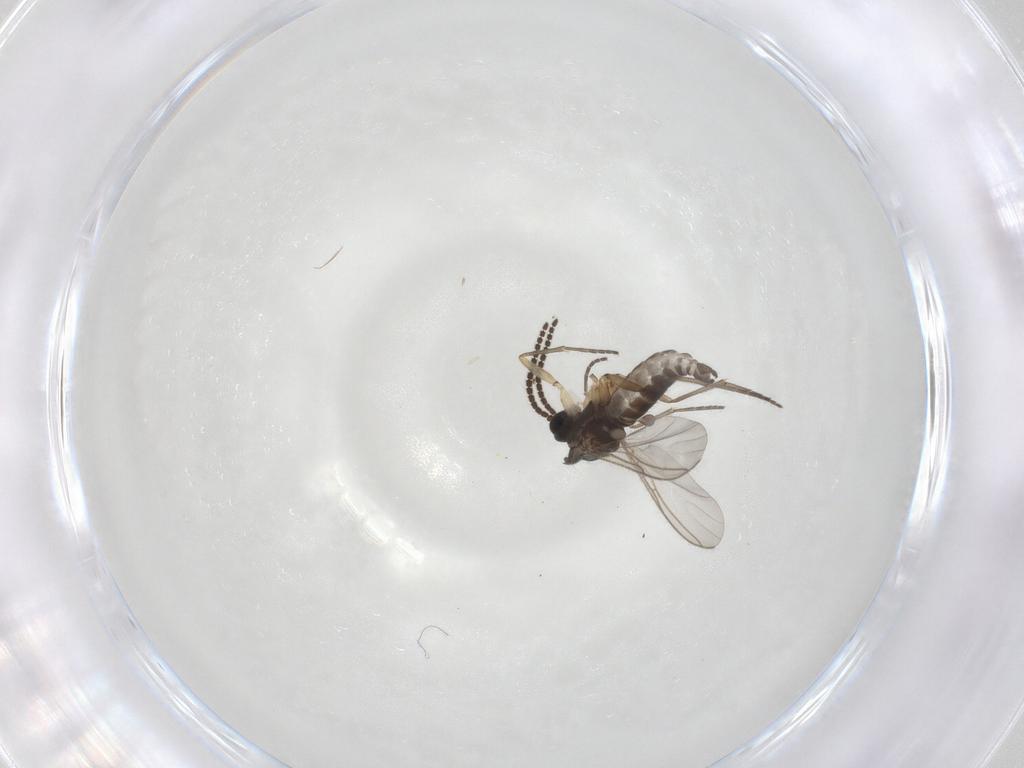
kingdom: Animalia
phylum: Arthropoda
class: Insecta
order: Diptera
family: Sciaridae
